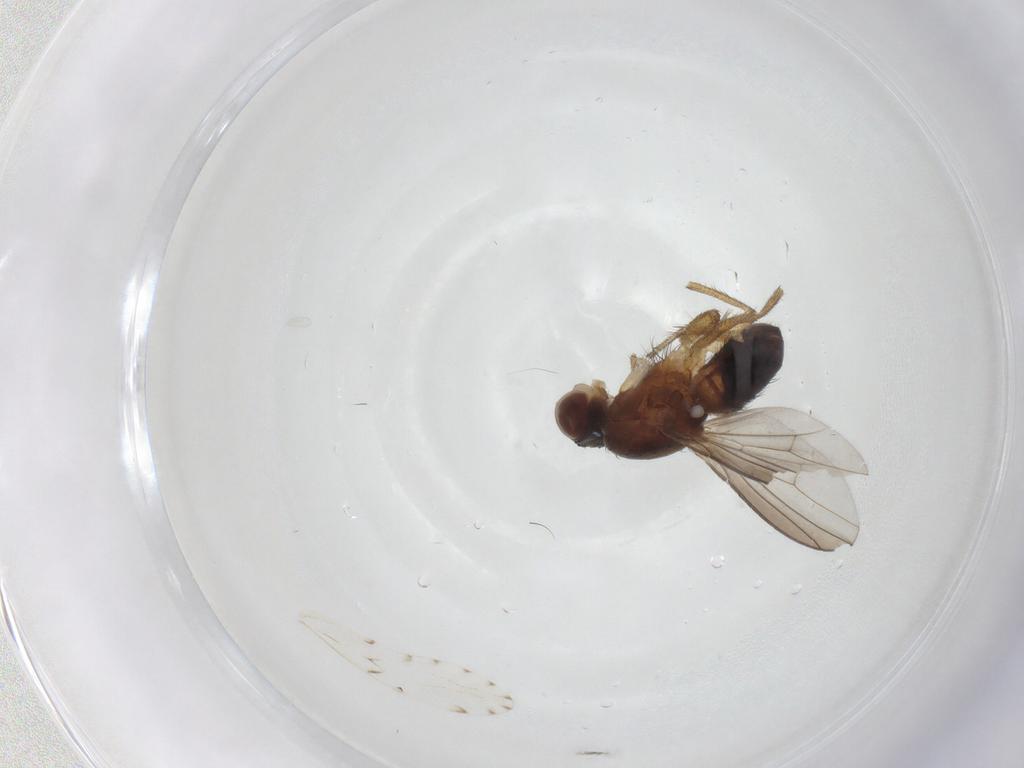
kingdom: Animalia
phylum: Arthropoda
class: Insecta
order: Diptera
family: Heleomyzidae
